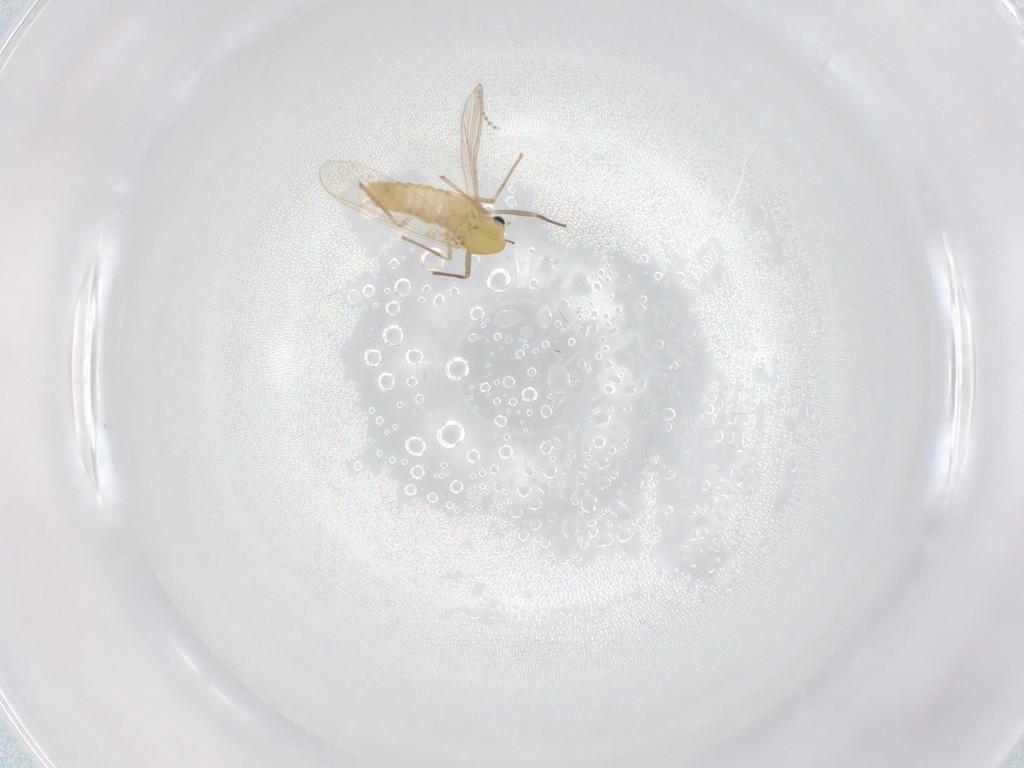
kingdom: Animalia
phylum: Arthropoda
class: Insecta
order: Diptera
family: Chironomidae
